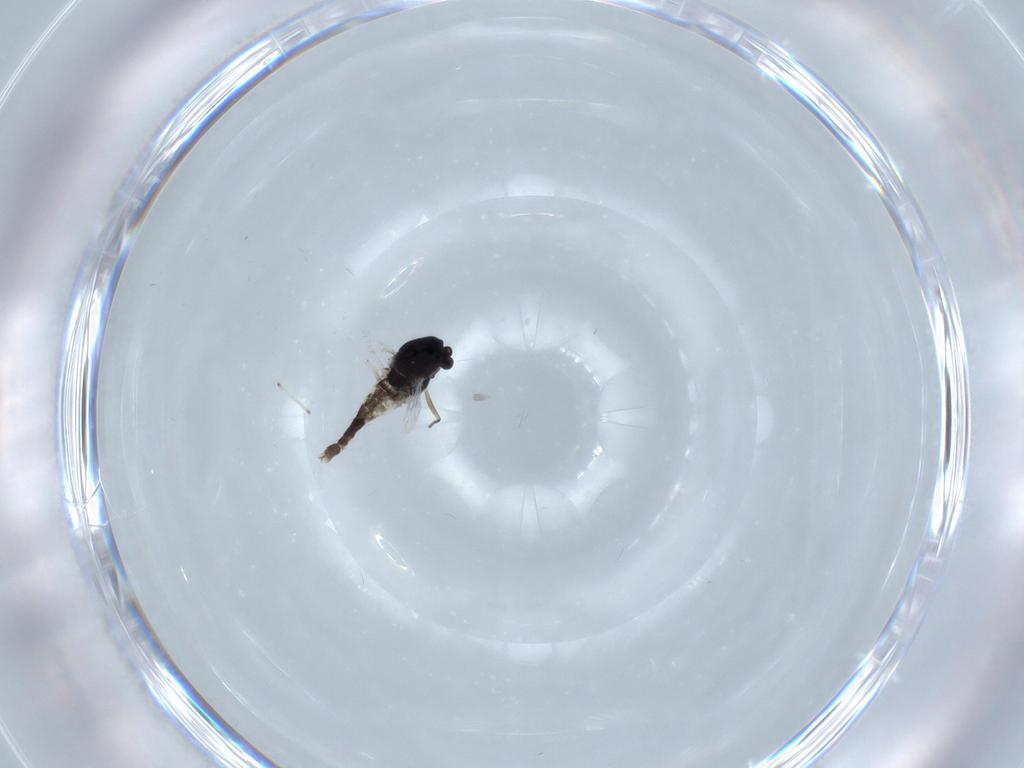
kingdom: Animalia
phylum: Arthropoda
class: Insecta
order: Diptera
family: Chironomidae
